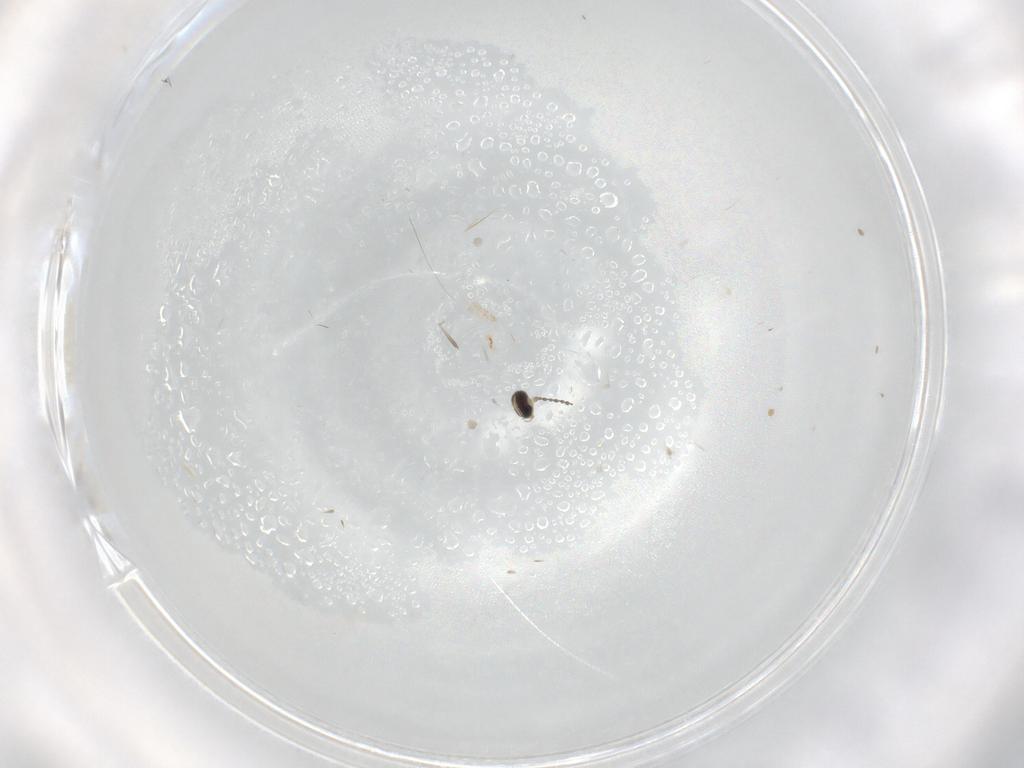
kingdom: Animalia
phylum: Arthropoda
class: Insecta
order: Diptera
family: Sciaridae
